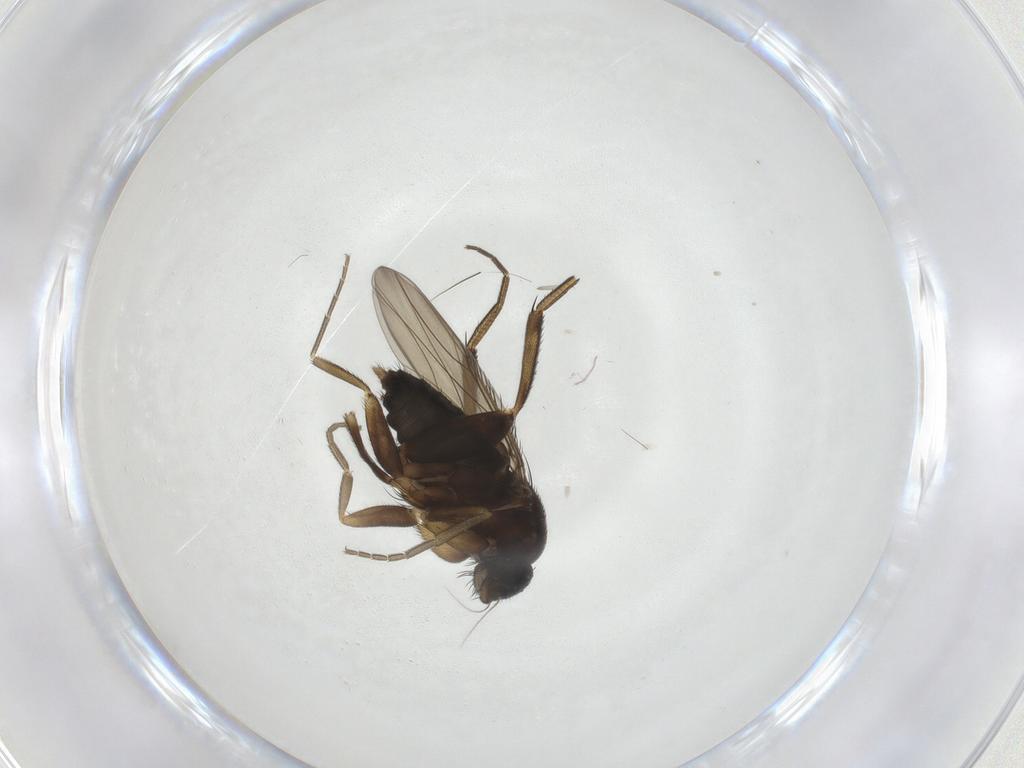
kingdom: Animalia
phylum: Arthropoda
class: Insecta
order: Diptera
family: Phoridae
